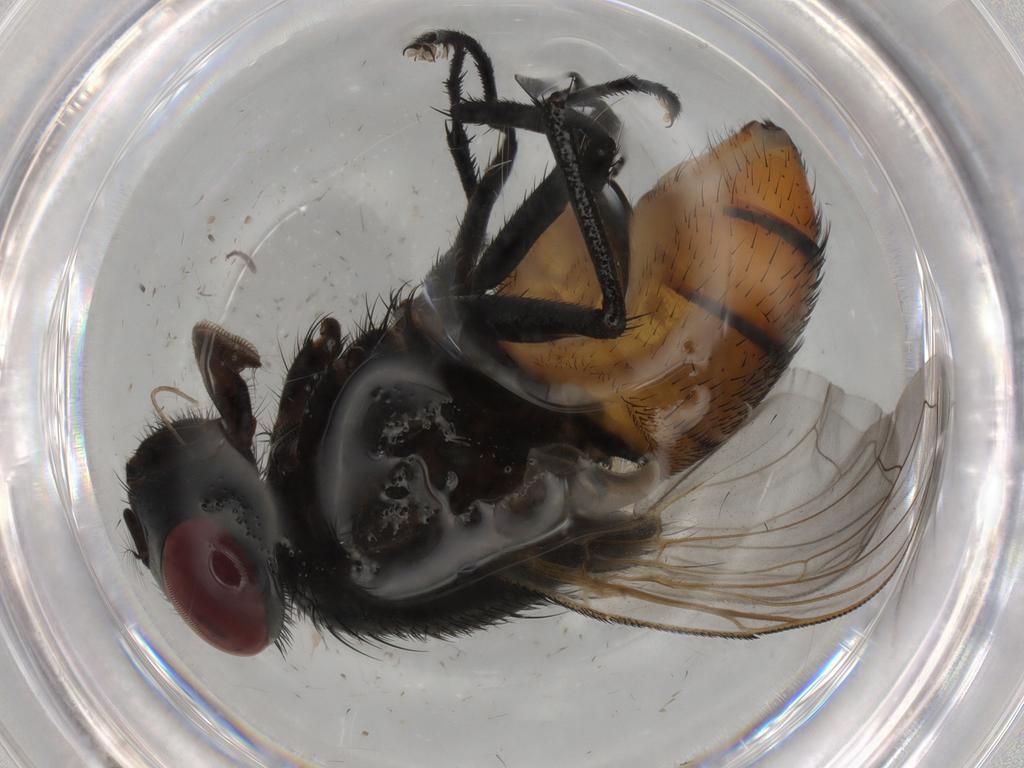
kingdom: Animalia
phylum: Arthropoda
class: Insecta
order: Diptera
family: Muscidae
